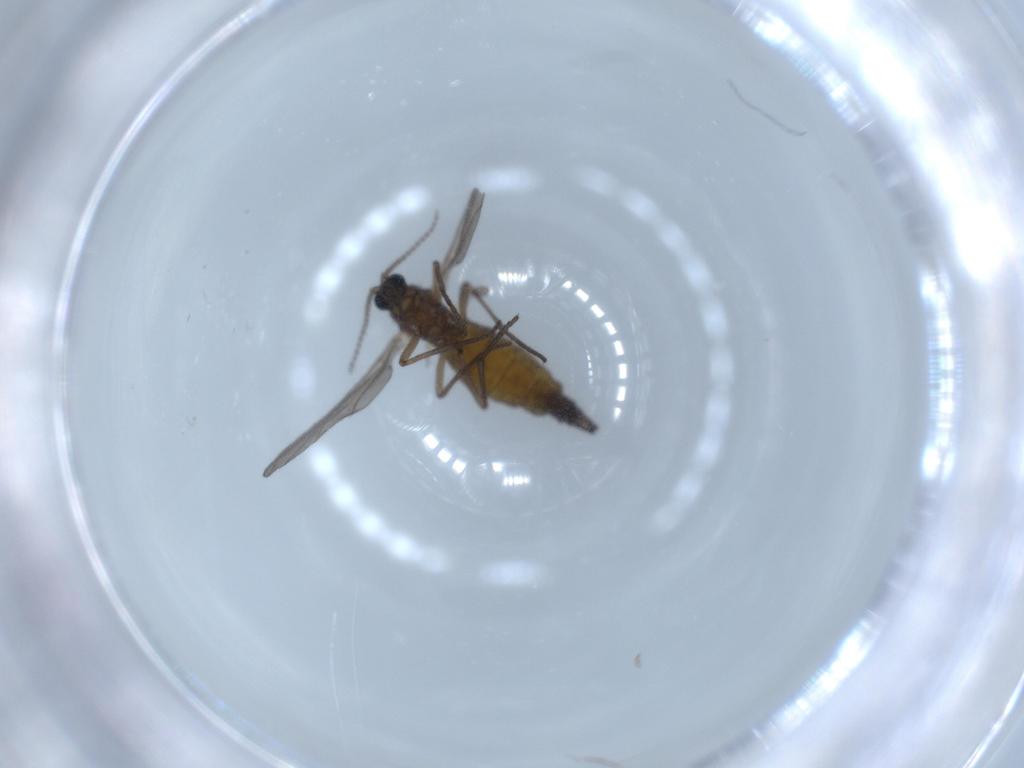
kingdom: Animalia
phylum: Arthropoda
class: Insecta
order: Diptera
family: Sciaridae
